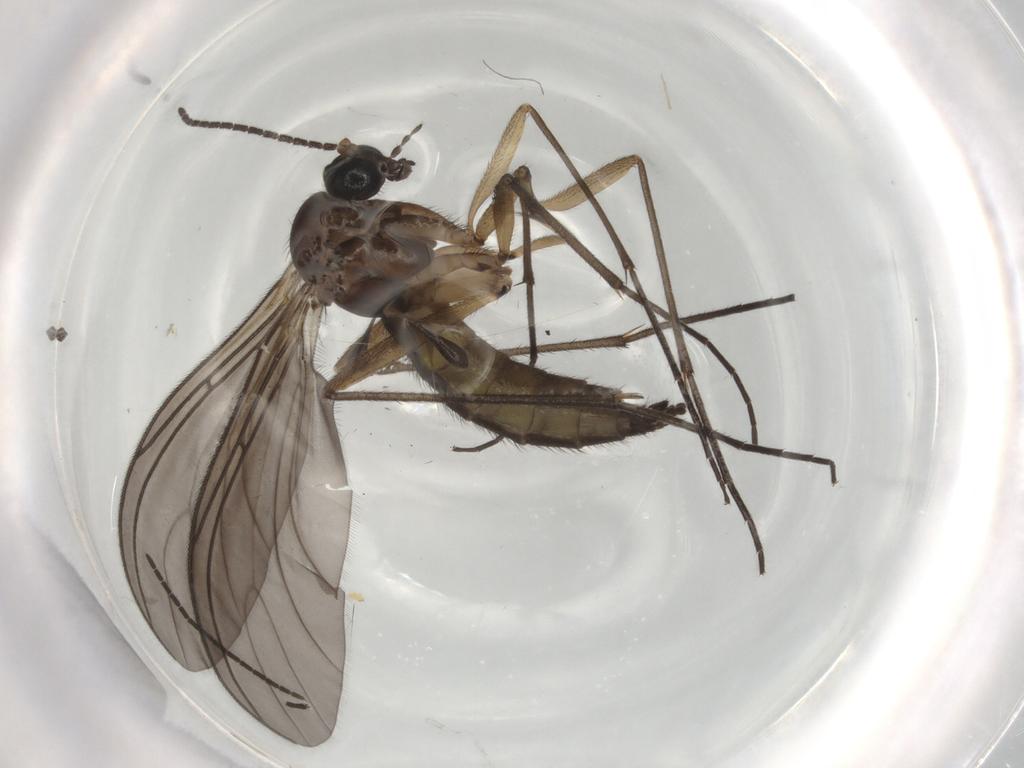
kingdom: Animalia
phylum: Arthropoda
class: Insecta
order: Diptera
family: Sciaridae
